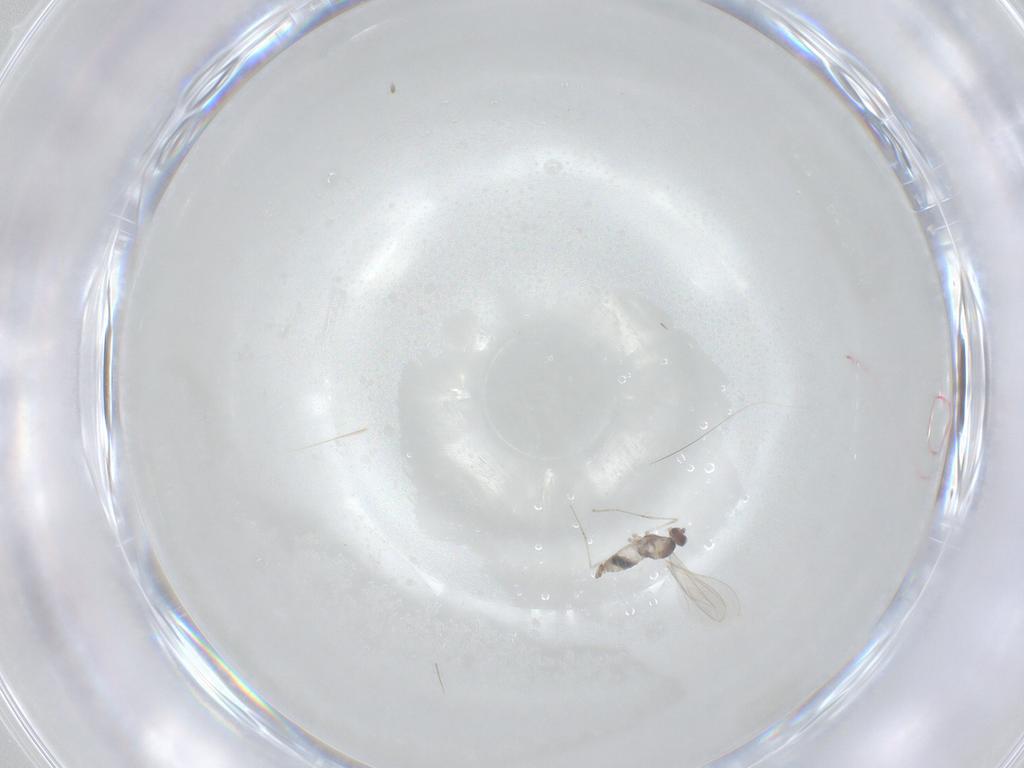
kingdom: Animalia
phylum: Arthropoda
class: Insecta
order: Diptera
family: Cecidomyiidae
